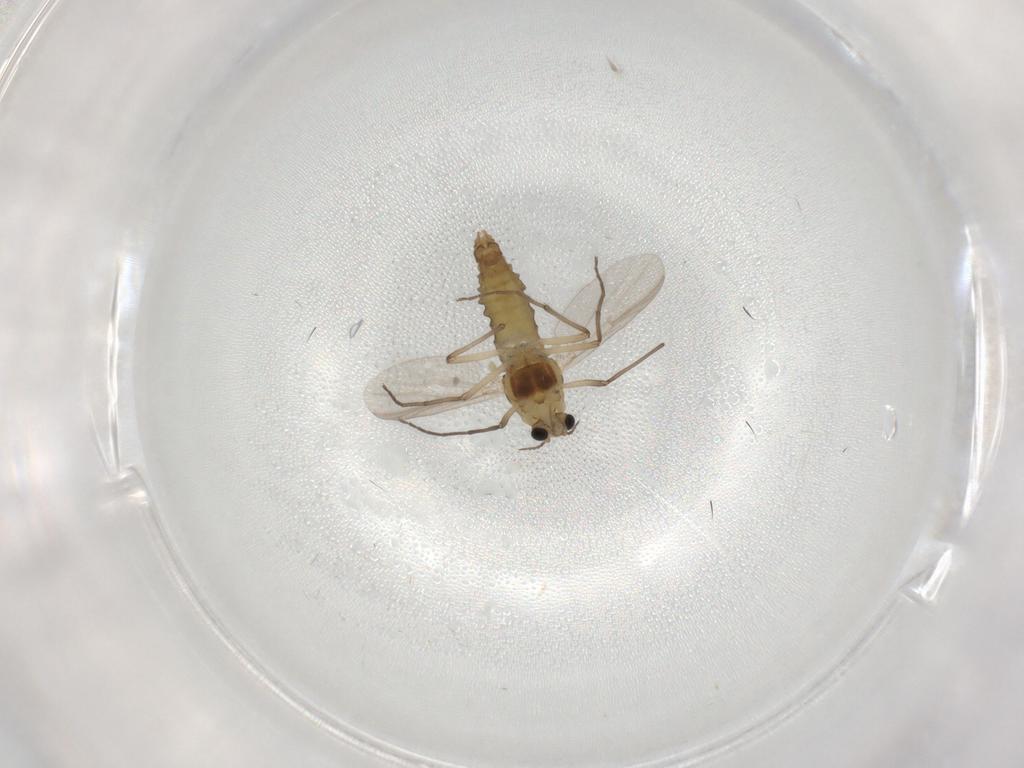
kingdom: Animalia
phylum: Arthropoda
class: Insecta
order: Diptera
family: Chironomidae
